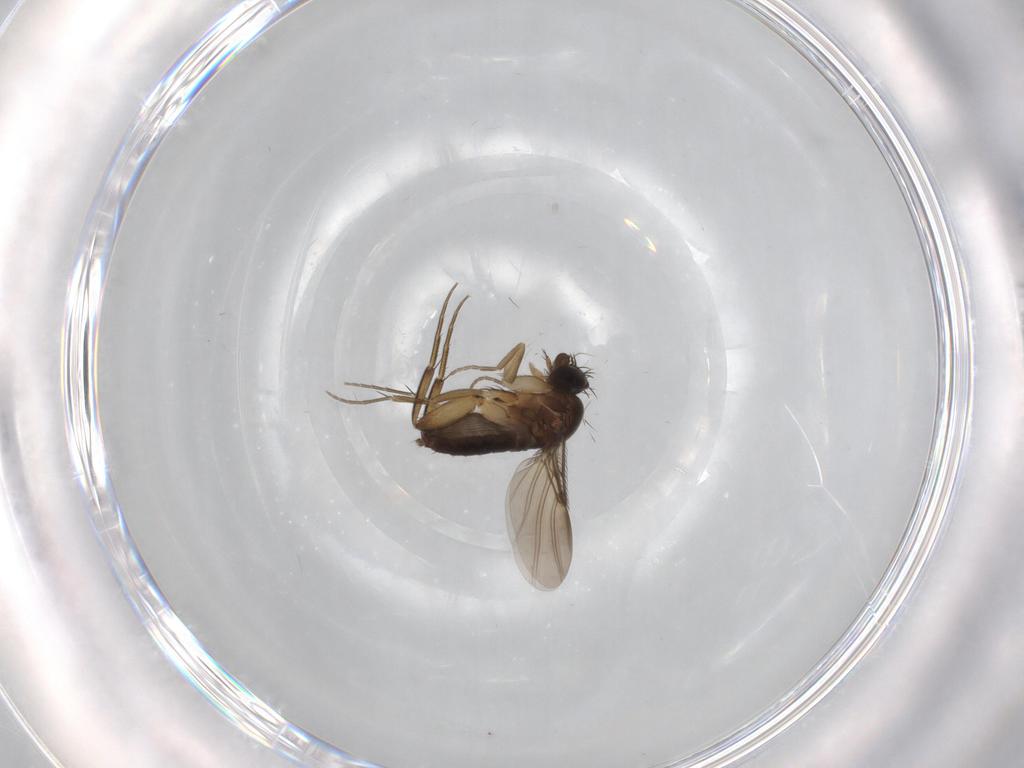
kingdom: Animalia
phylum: Arthropoda
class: Insecta
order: Diptera
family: Phoridae
